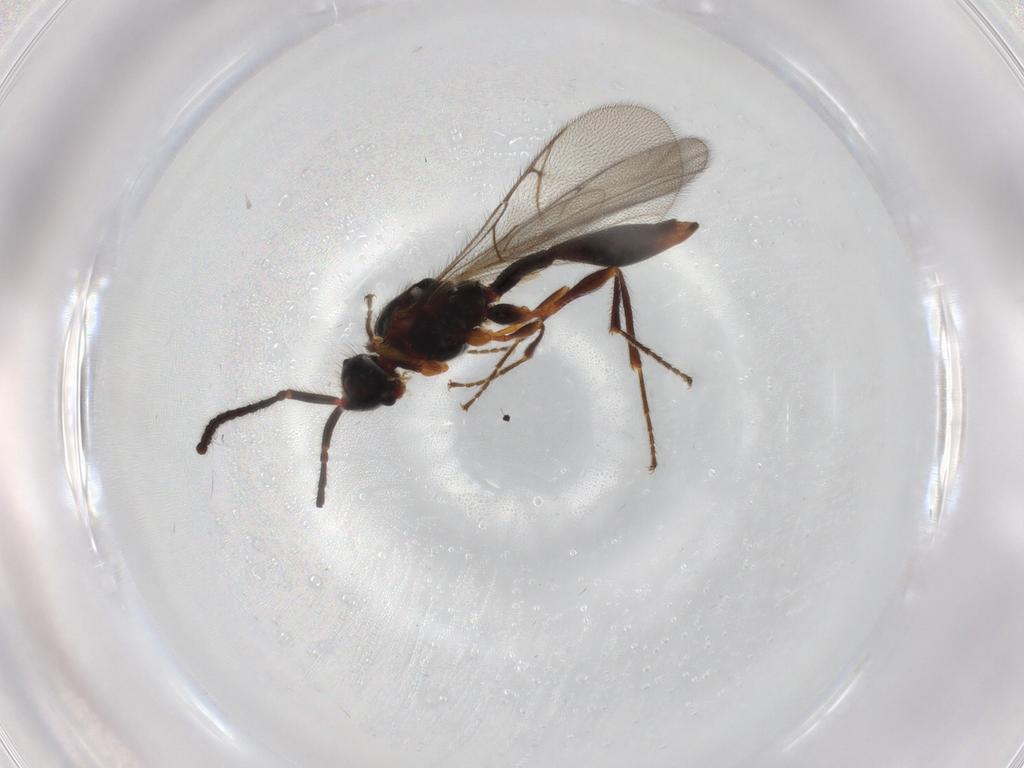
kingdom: Animalia
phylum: Arthropoda
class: Insecta
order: Hymenoptera
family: Diapriidae
